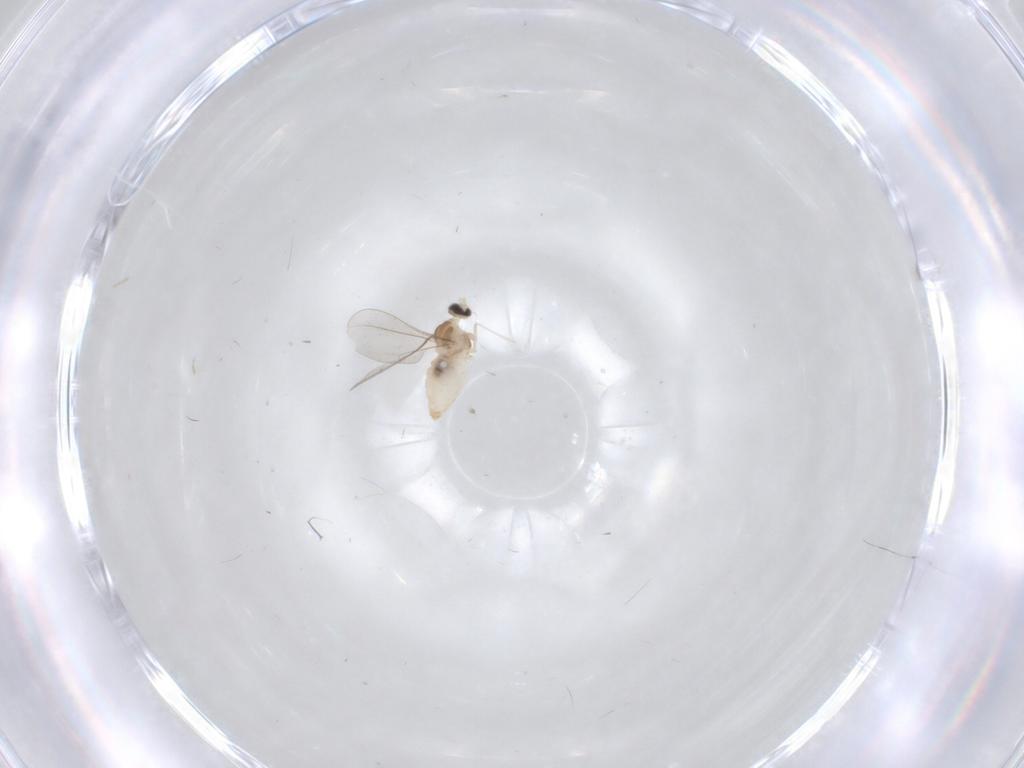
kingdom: Animalia
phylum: Arthropoda
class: Insecta
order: Diptera
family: Cecidomyiidae
